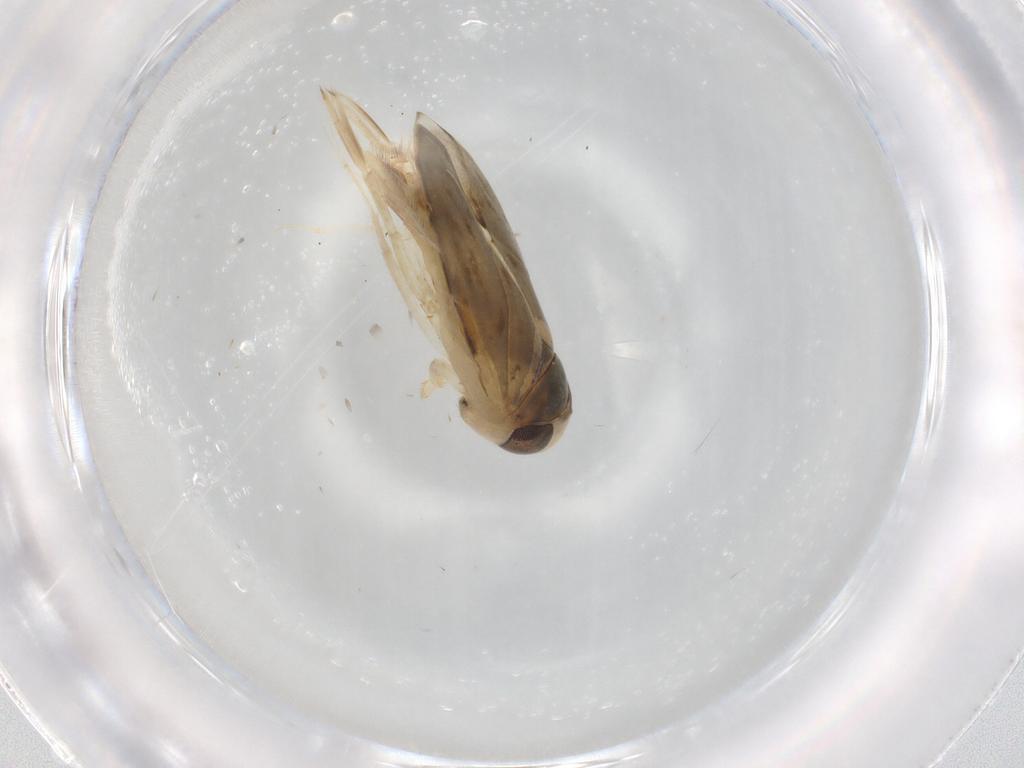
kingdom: Animalia
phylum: Arthropoda
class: Insecta
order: Hemiptera
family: Corixidae
